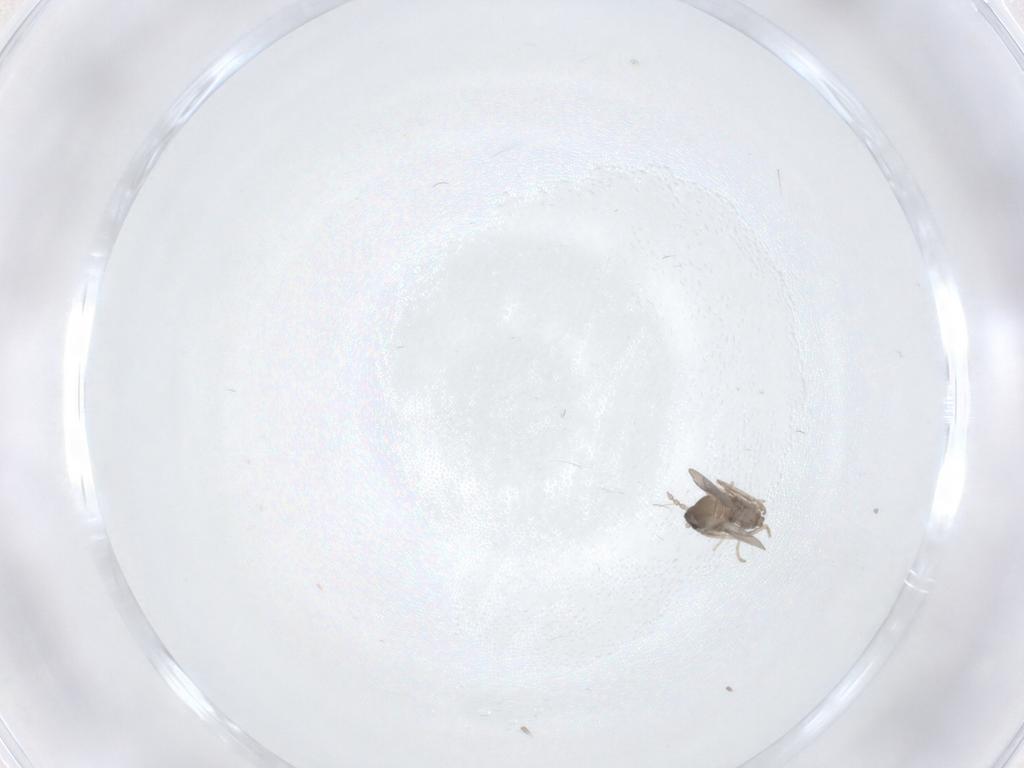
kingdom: Animalia
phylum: Arthropoda
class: Insecta
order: Diptera
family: Cecidomyiidae
